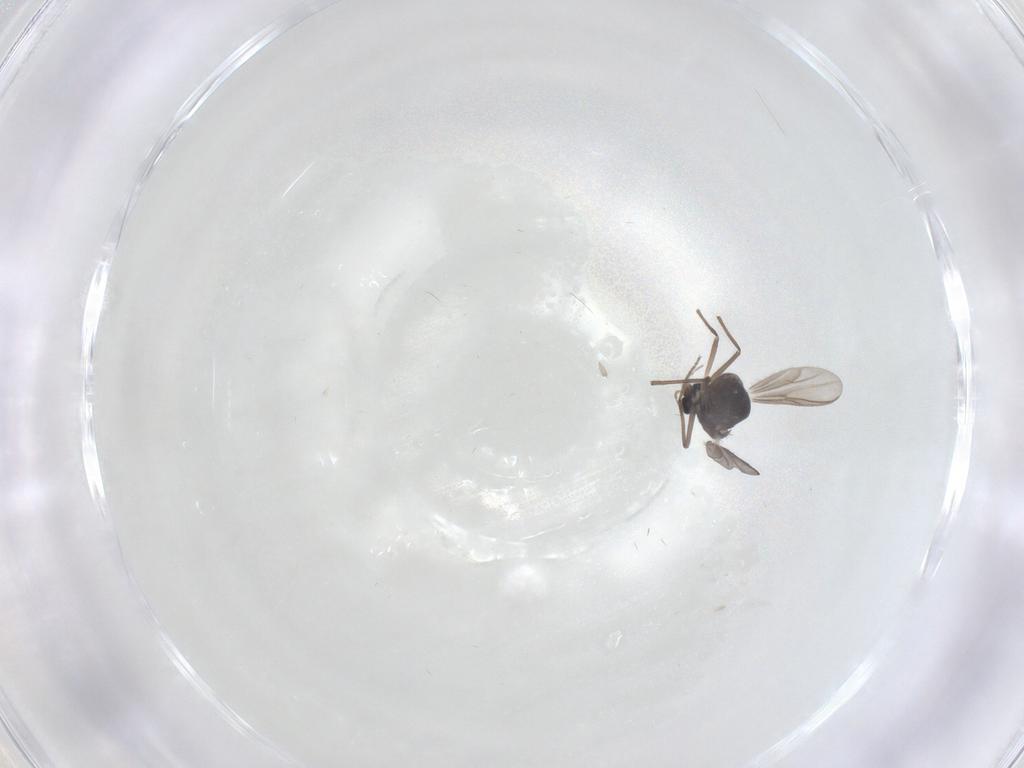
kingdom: Animalia
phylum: Arthropoda
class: Insecta
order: Diptera
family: Chironomidae
